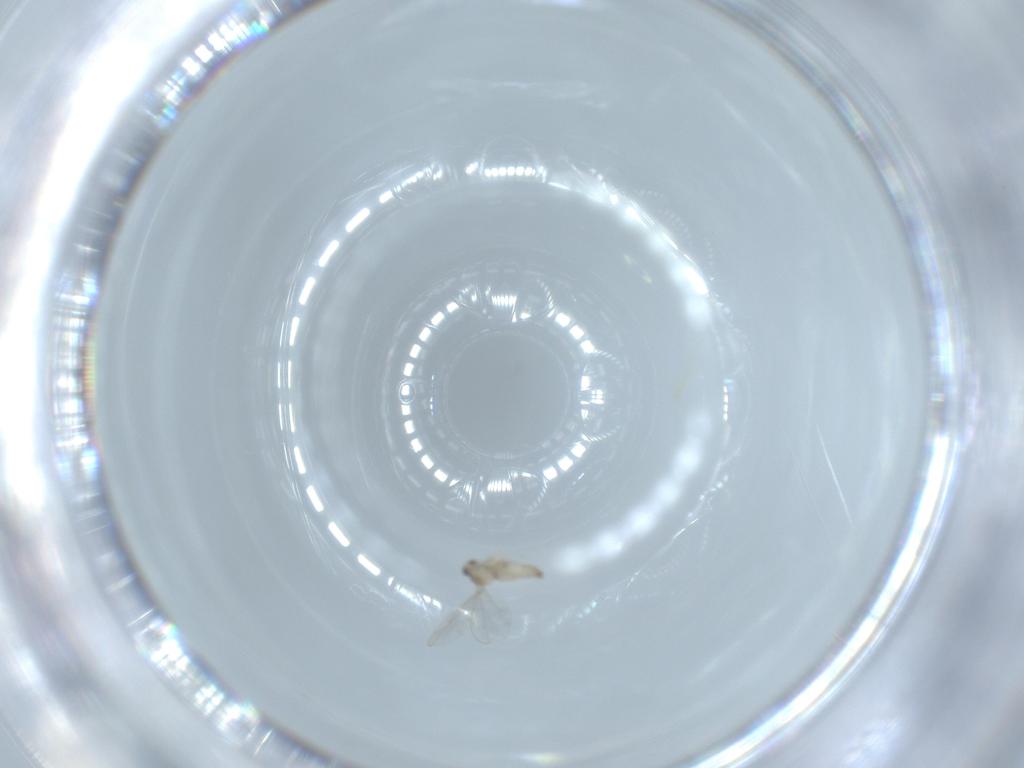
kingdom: Animalia
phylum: Arthropoda
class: Insecta
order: Diptera
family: Cecidomyiidae
